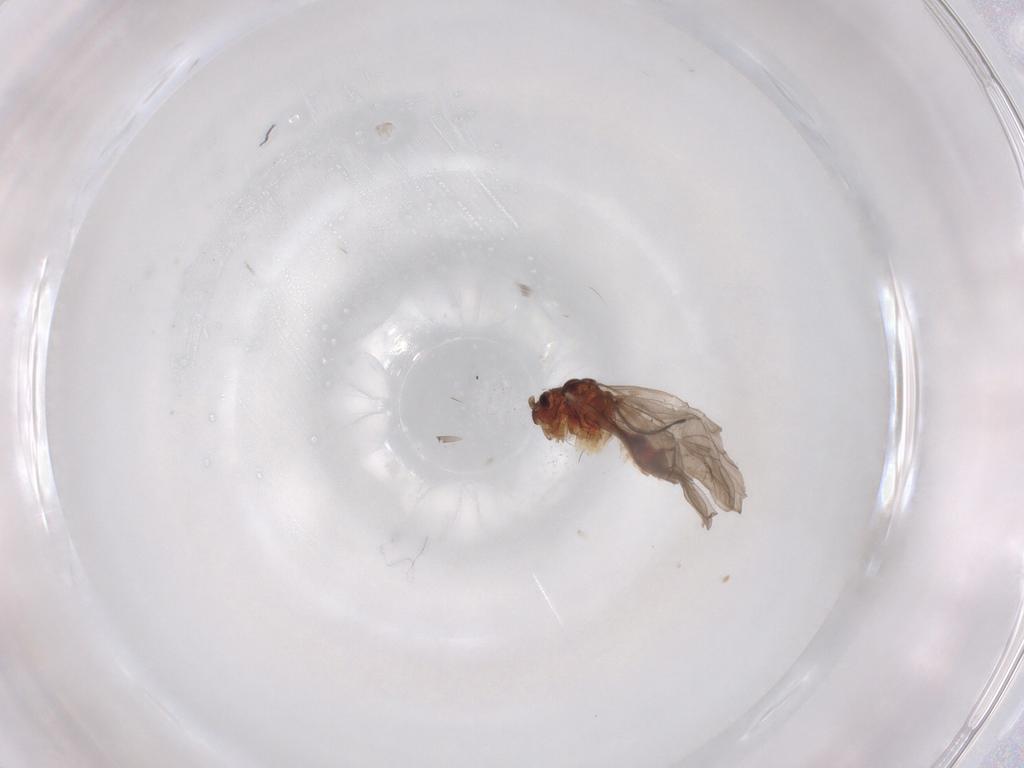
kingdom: Animalia
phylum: Arthropoda
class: Insecta
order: Psocodea
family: Caeciliusidae
